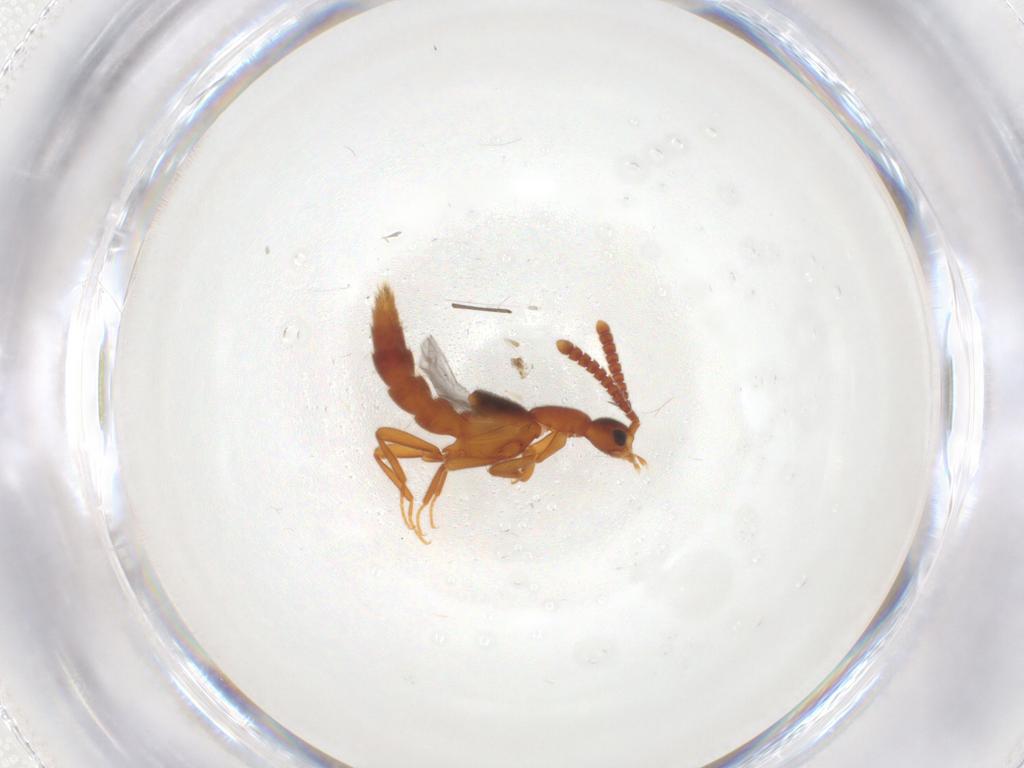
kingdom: Animalia
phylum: Arthropoda
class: Insecta
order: Coleoptera
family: Staphylinidae
